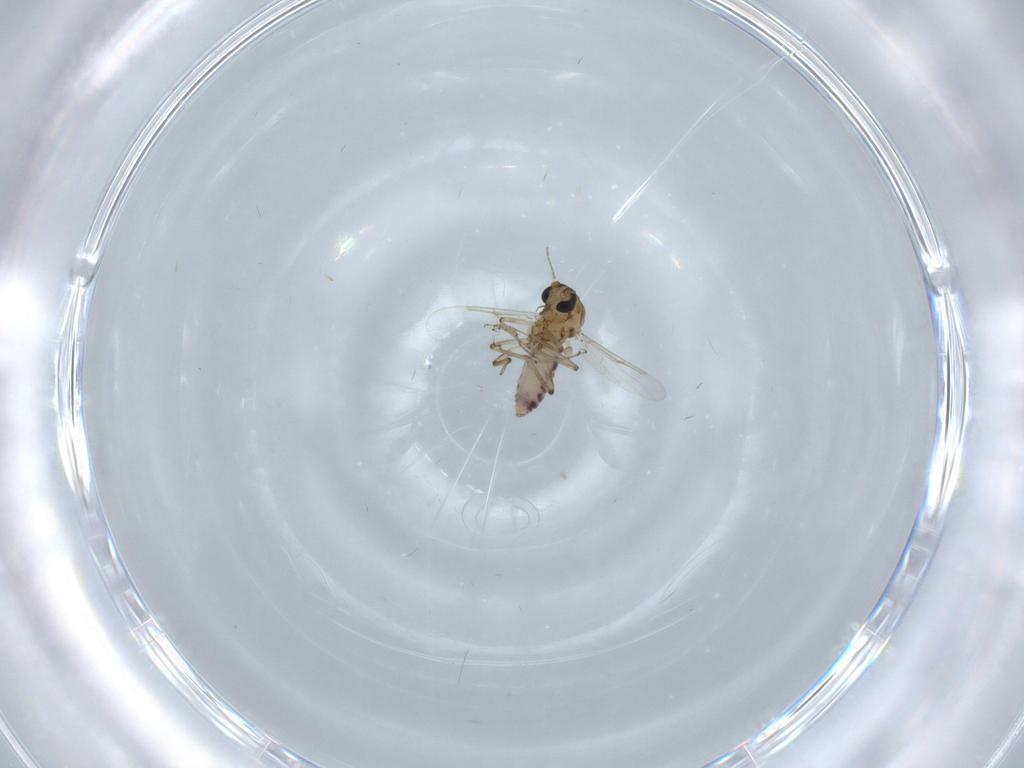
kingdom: Animalia
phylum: Arthropoda
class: Insecta
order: Diptera
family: Ceratopogonidae
